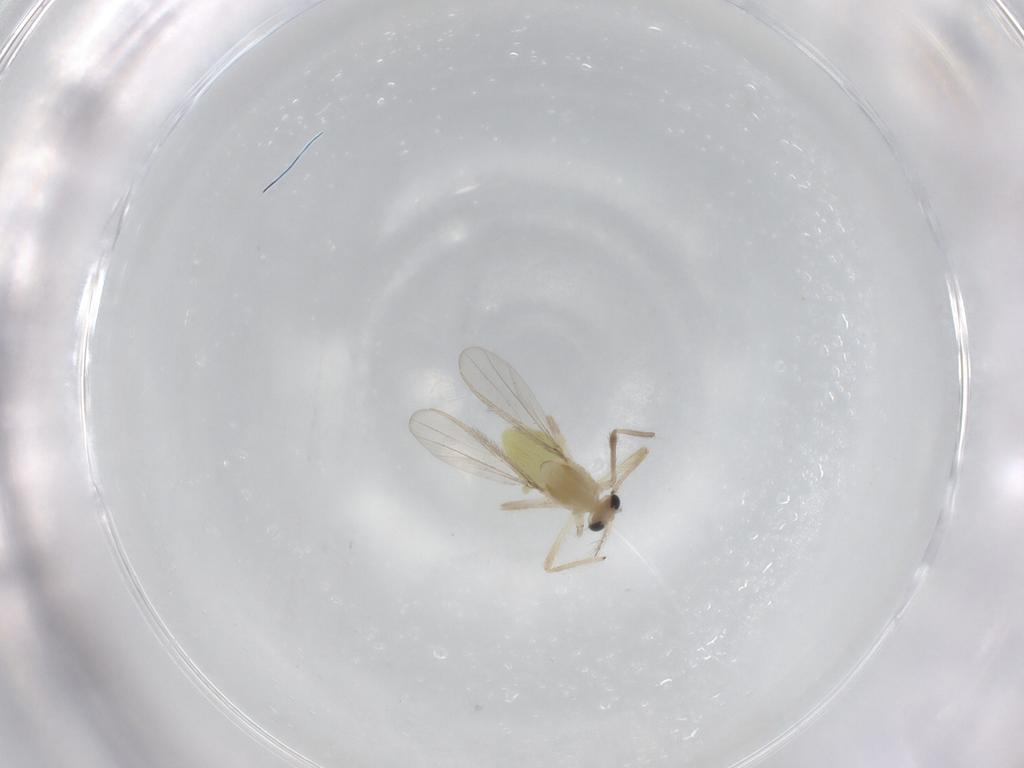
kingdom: Animalia
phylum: Arthropoda
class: Insecta
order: Diptera
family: Chironomidae
